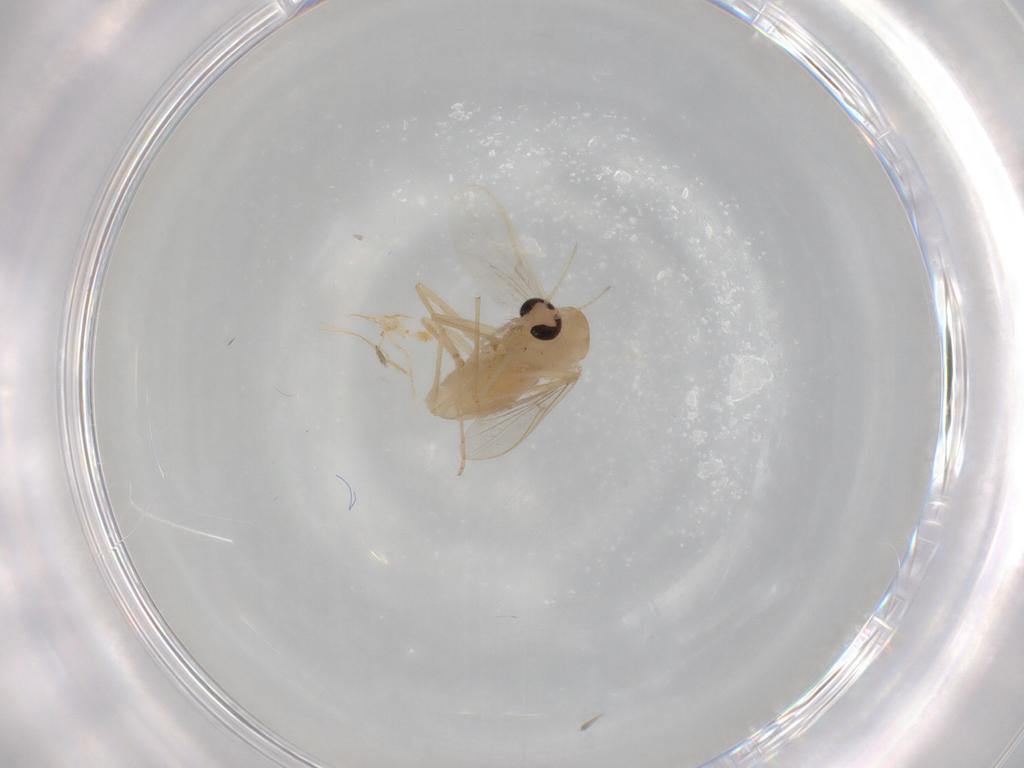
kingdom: Animalia
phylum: Arthropoda
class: Insecta
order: Diptera
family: Chironomidae
